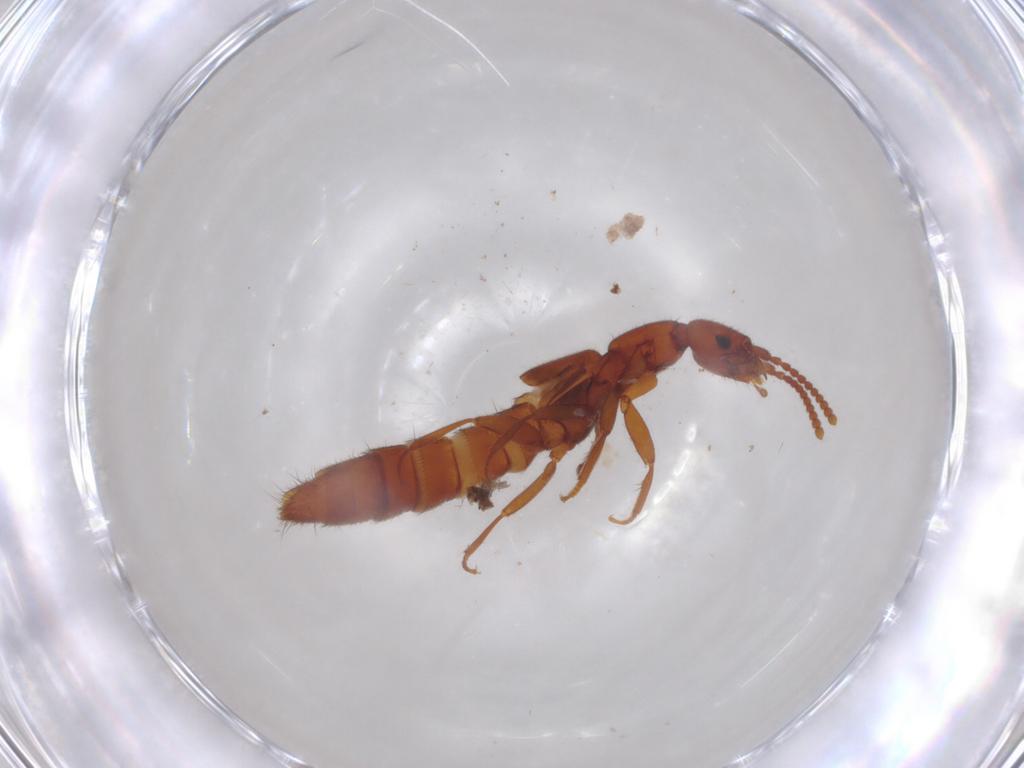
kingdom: Animalia
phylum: Arthropoda
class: Insecta
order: Coleoptera
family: Staphylinidae
